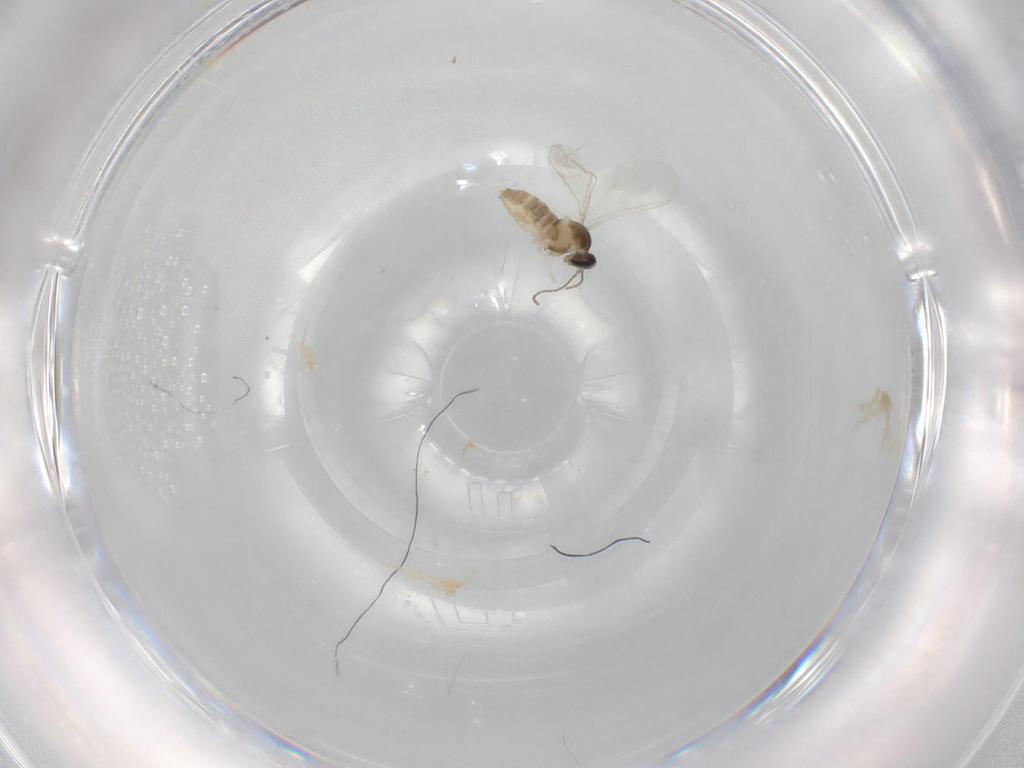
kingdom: Animalia
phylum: Arthropoda
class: Insecta
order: Diptera
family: Cecidomyiidae
